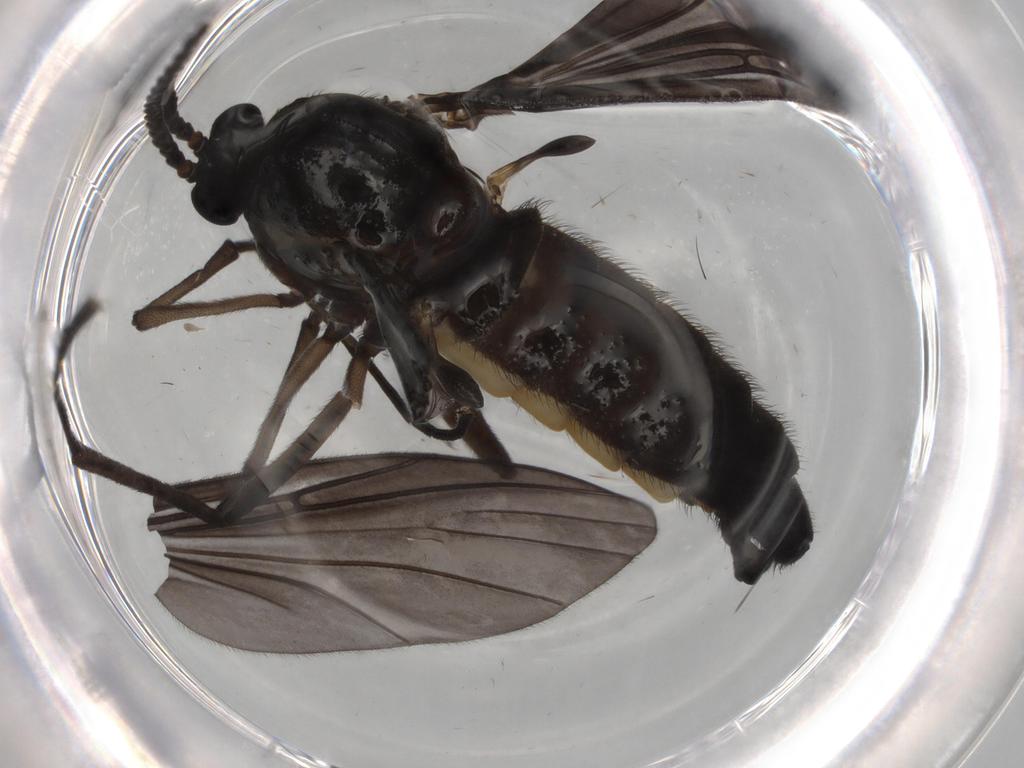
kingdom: Animalia
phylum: Arthropoda
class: Insecta
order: Diptera
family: Sciaridae
